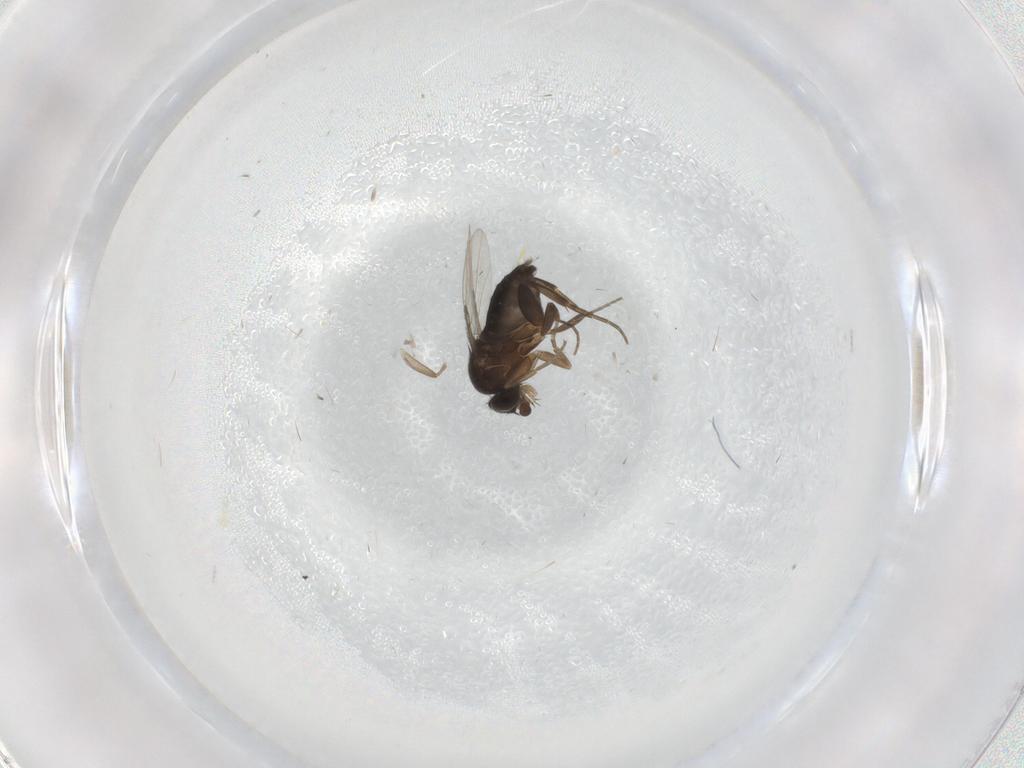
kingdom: Animalia
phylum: Arthropoda
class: Insecta
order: Diptera
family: Phoridae
